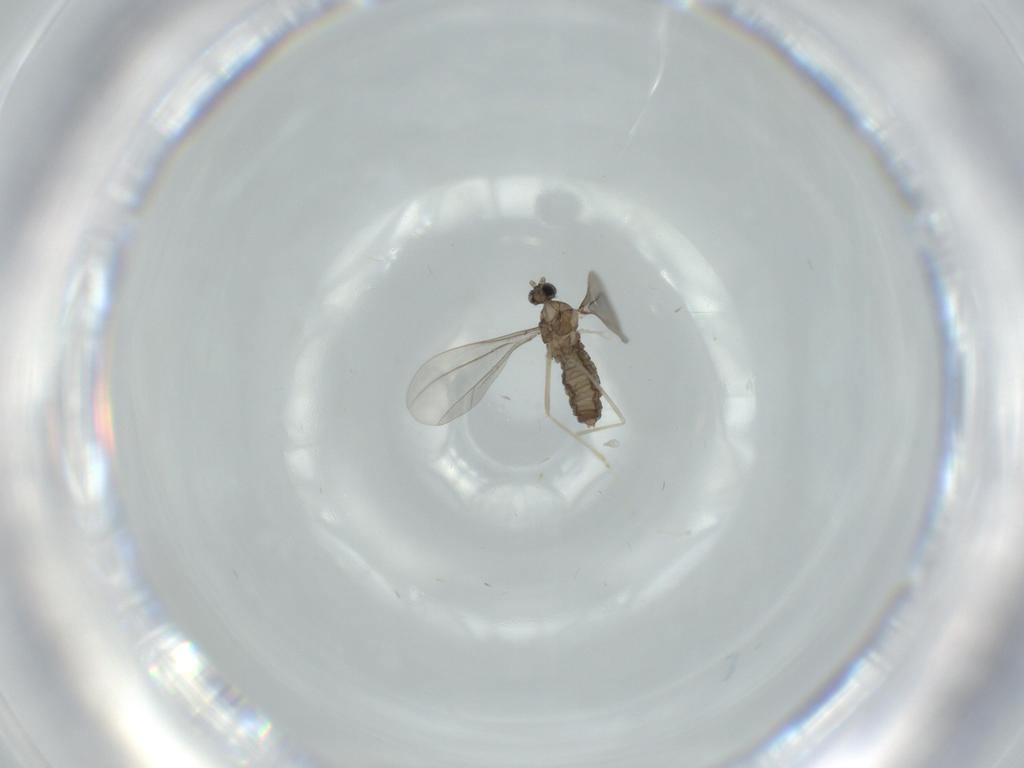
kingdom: Animalia
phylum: Arthropoda
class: Insecta
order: Diptera
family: Cecidomyiidae
